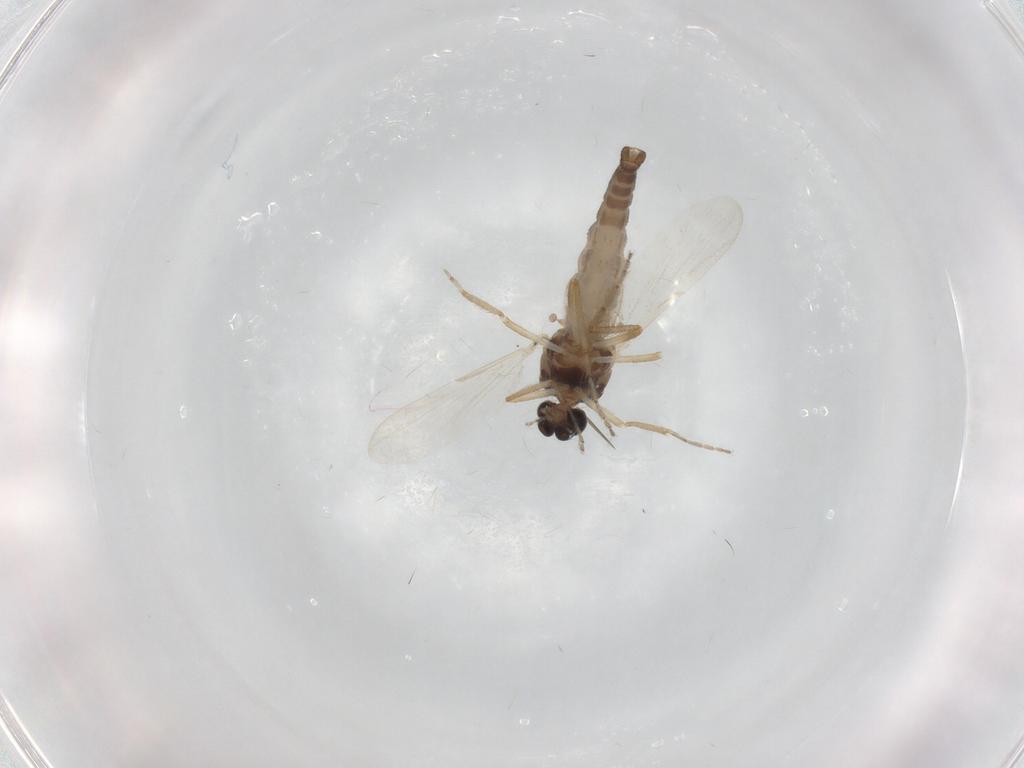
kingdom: Animalia
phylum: Arthropoda
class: Insecta
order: Diptera
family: Ceratopogonidae
